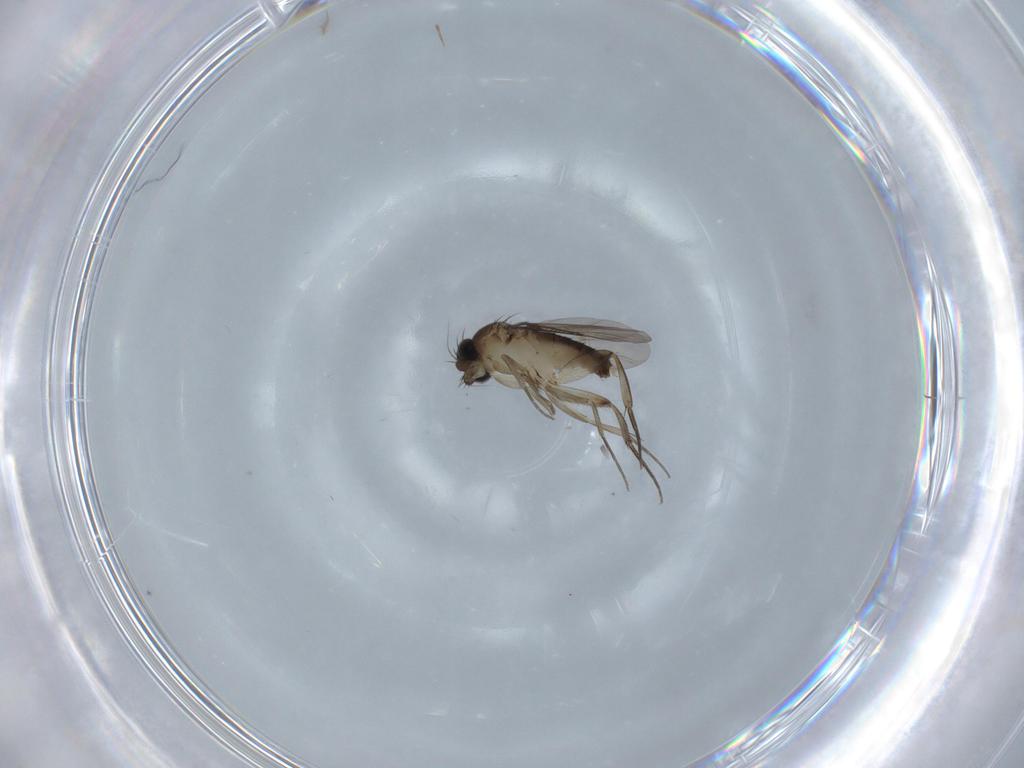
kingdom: Animalia
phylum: Arthropoda
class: Insecta
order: Diptera
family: Phoridae
